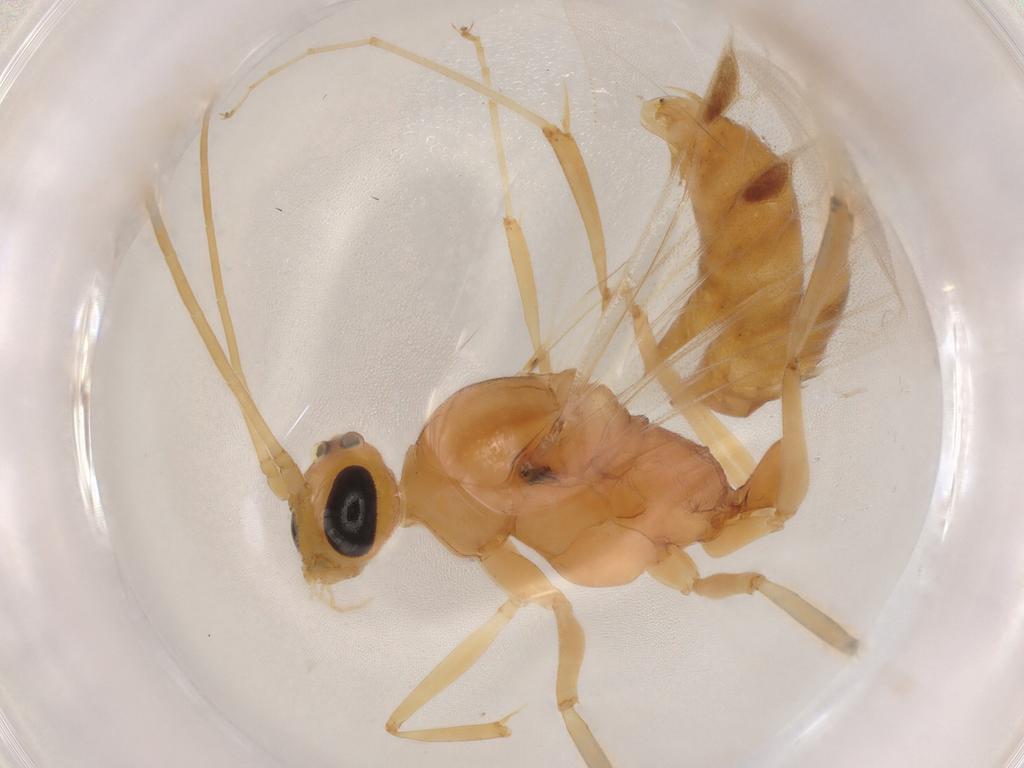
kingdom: Animalia
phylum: Arthropoda
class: Insecta
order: Hymenoptera
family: Trichogrammatidae
